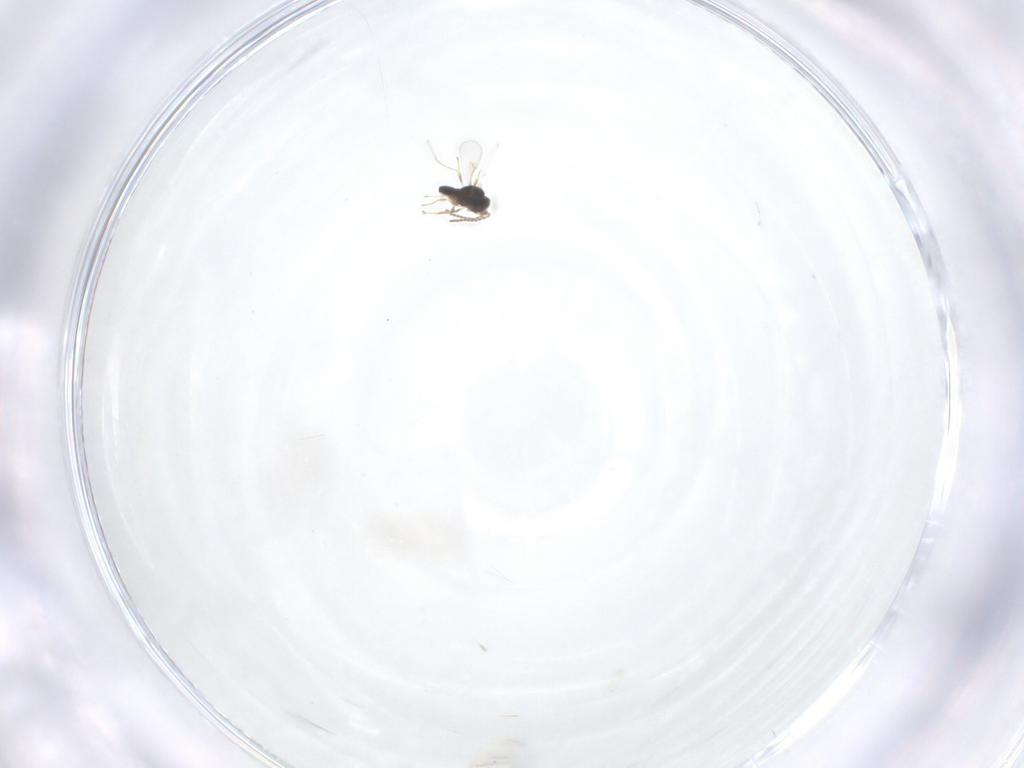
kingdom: Animalia
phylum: Arthropoda
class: Insecta
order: Hymenoptera
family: Scelionidae
